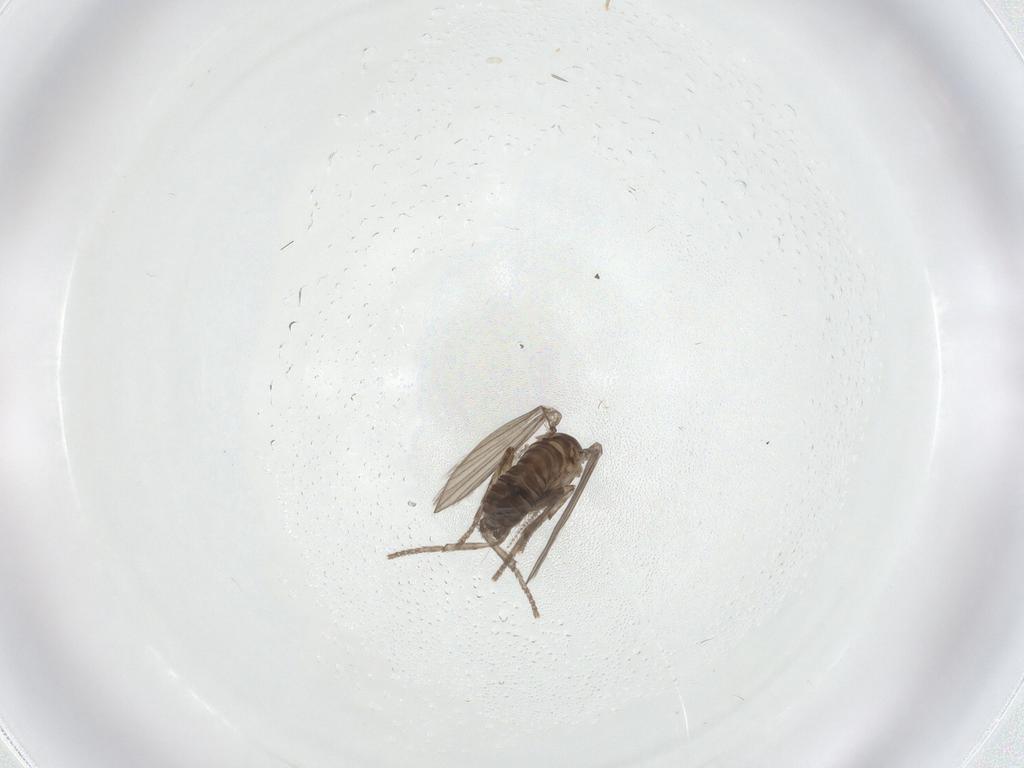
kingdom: Animalia
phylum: Arthropoda
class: Insecta
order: Diptera
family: Psychodidae
